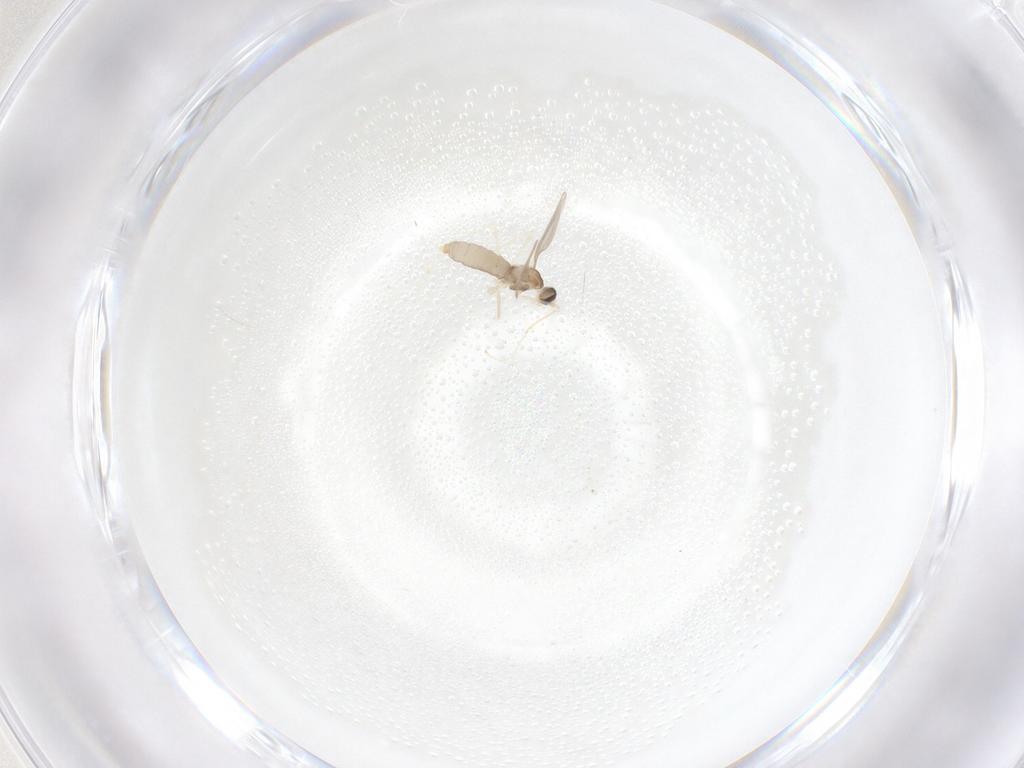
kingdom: Animalia
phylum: Arthropoda
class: Insecta
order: Diptera
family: Cecidomyiidae
